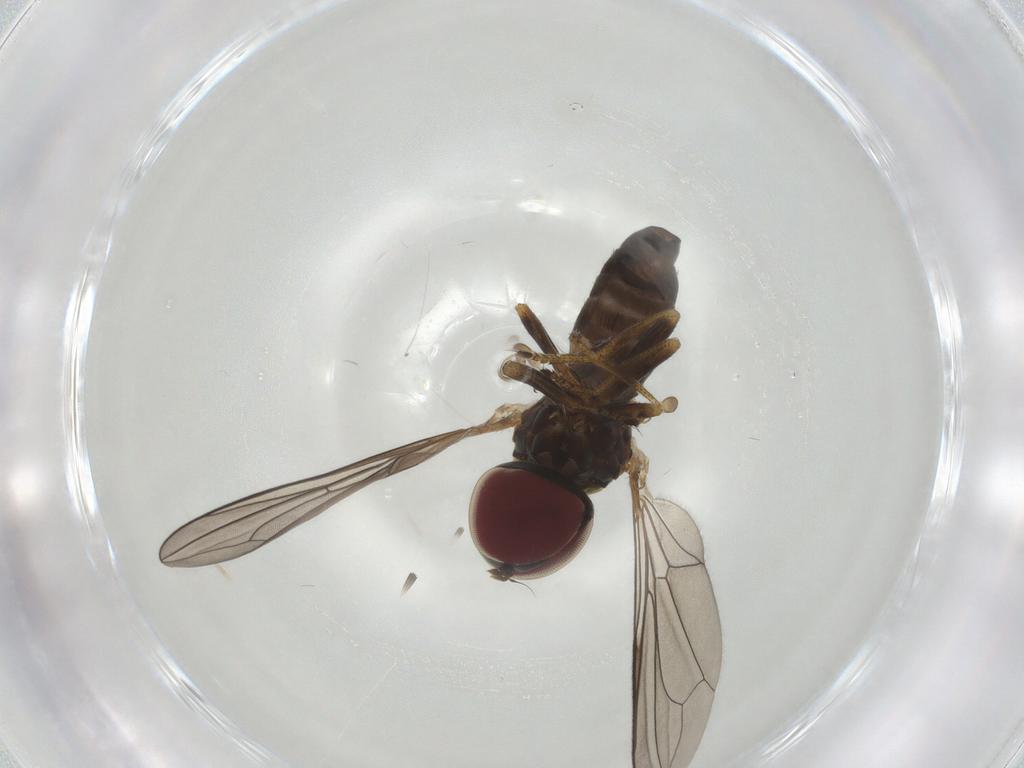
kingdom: Animalia
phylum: Arthropoda
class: Insecta
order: Diptera
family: Pipunculidae
